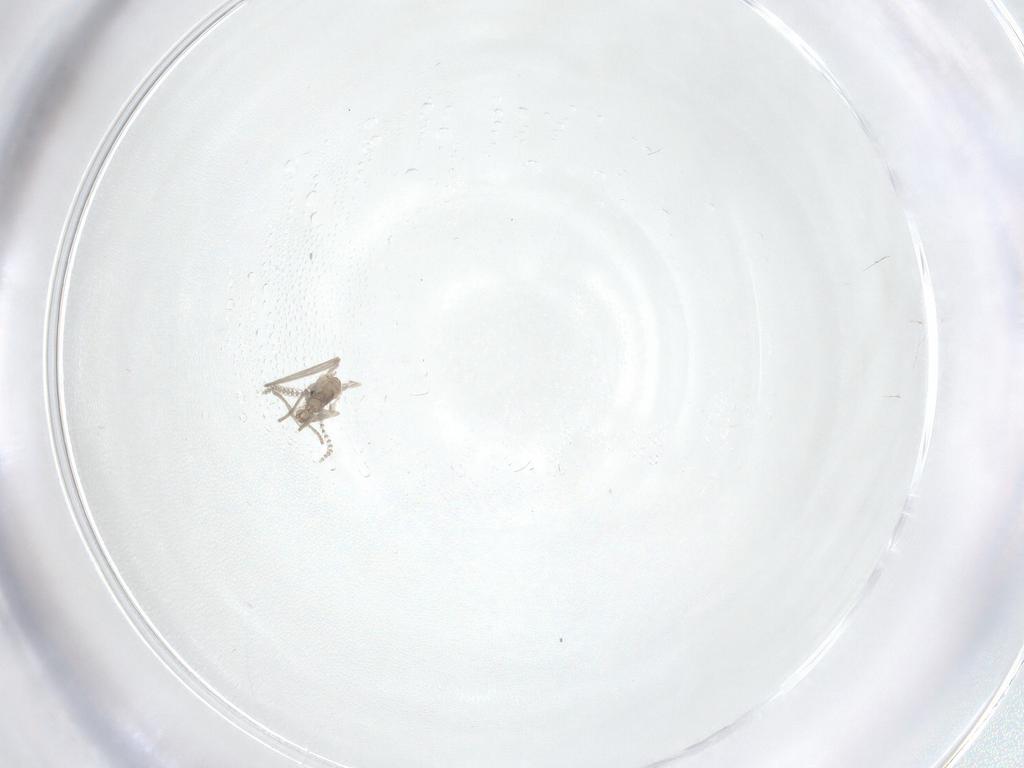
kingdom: Animalia
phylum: Arthropoda
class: Insecta
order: Diptera
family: Psychodidae
